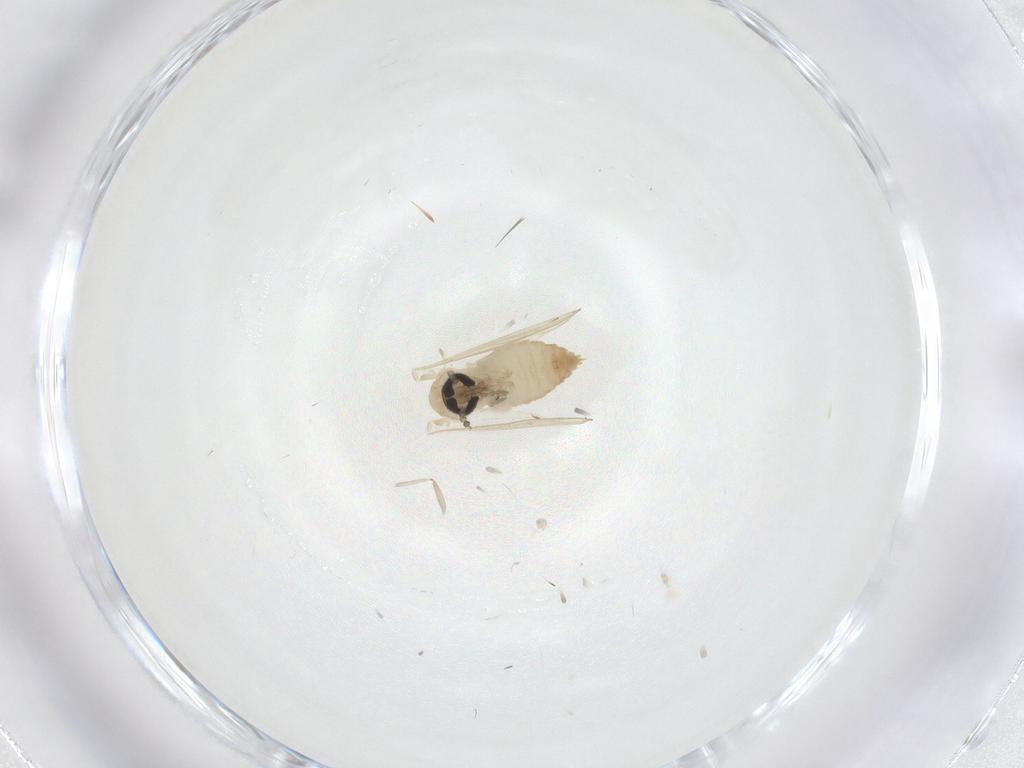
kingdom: Animalia
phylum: Arthropoda
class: Insecta
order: Diptera
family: Psychodidae
